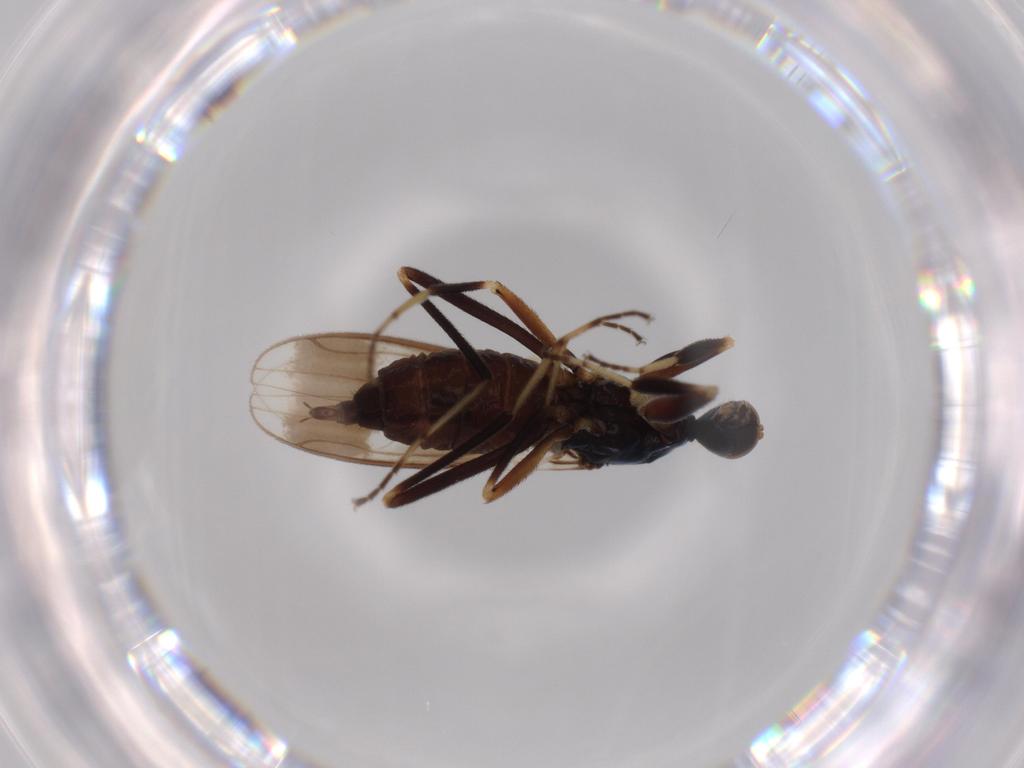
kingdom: Animalia
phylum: Arthropoda
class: Insecta
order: Diptera
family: Hybotidae
